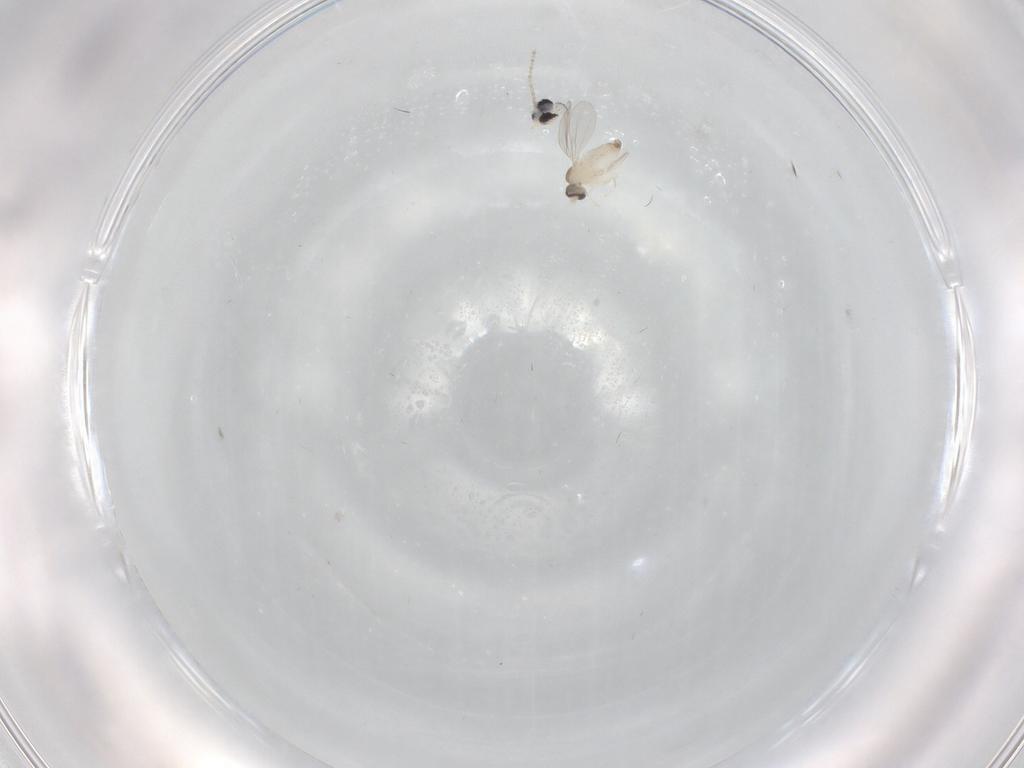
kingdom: Animalia
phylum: Arthropoda
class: Insecta
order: Diptera
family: Cecidomyiidae
